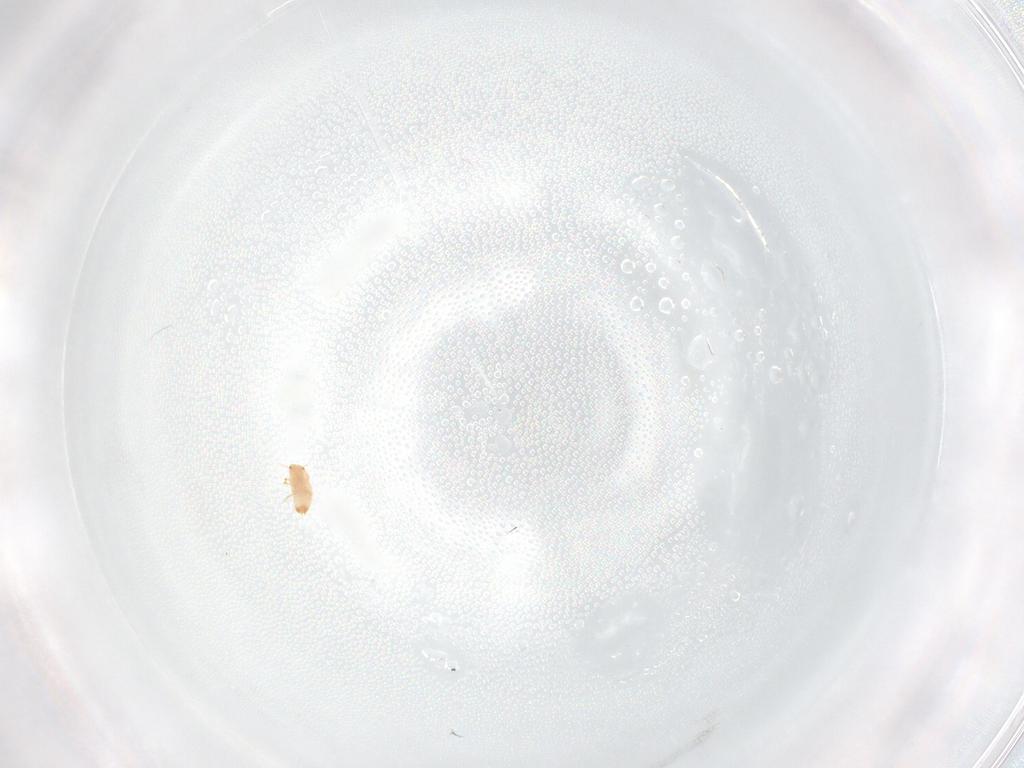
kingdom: Animalia
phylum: Arthropoda
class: Insecta
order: Hemiptera
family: Coccidae
